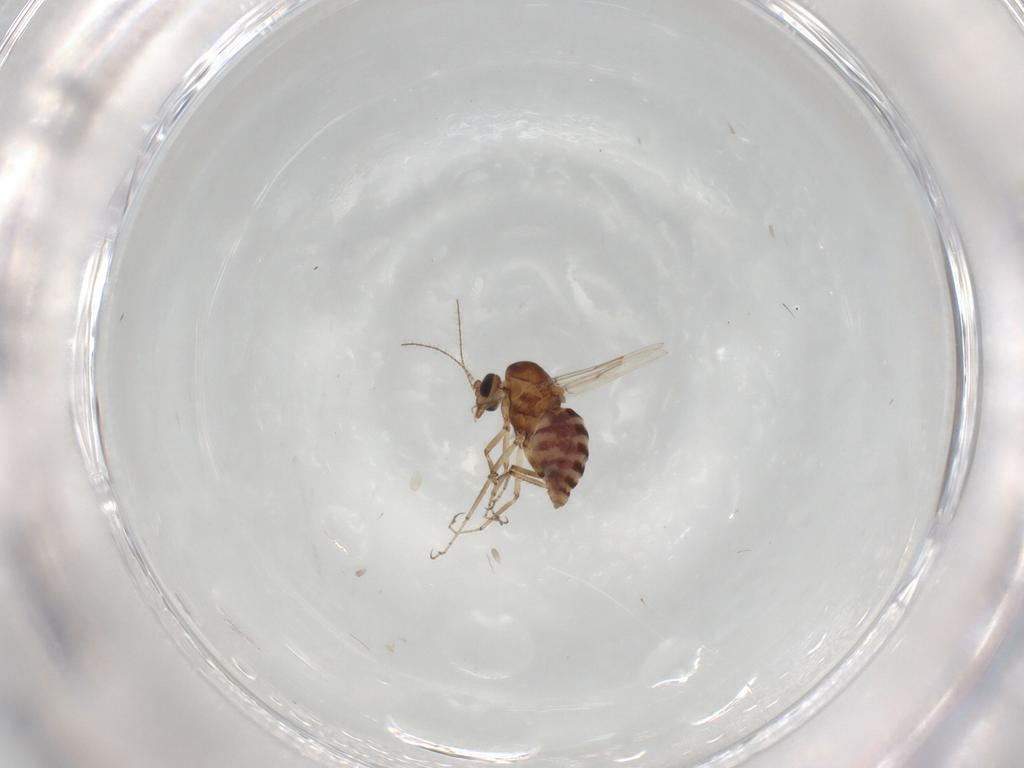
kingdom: Animalia
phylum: Arthropoda
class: Insecta
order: Diptera
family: Ceratopogonidae
